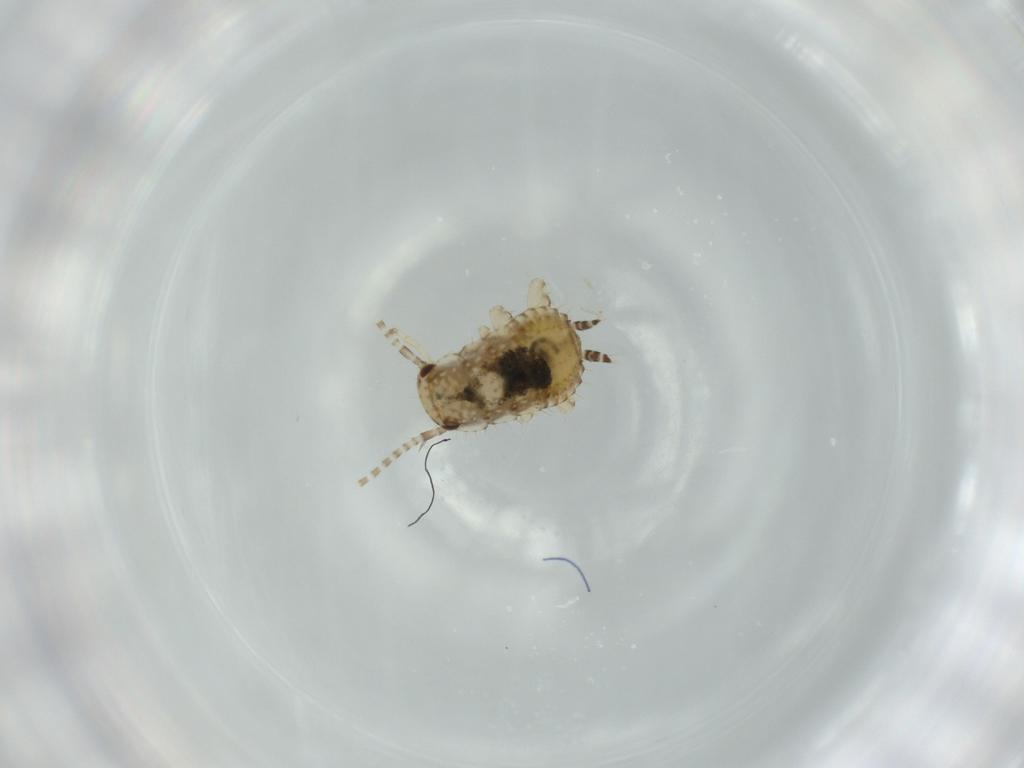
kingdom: Animalia
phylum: Arthropoda
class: Insecta
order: Blattodea
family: Ectobiidae
